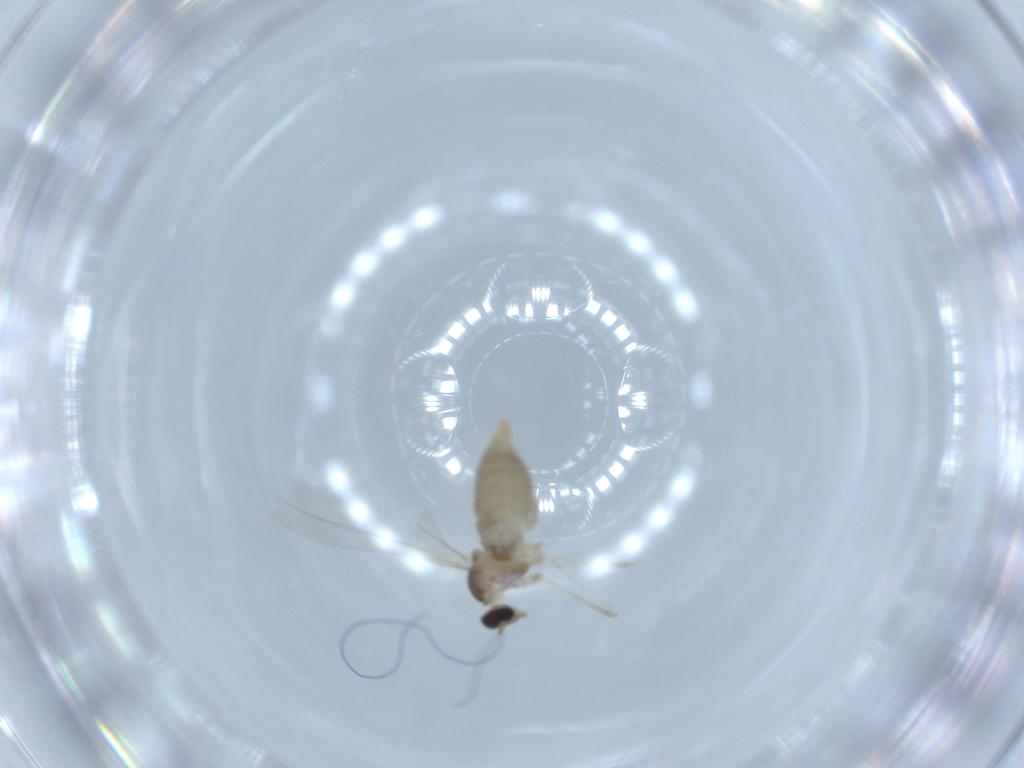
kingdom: Animalia
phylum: Arthropoda
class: Insecta
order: Diptera
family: Cecidomyiidae
